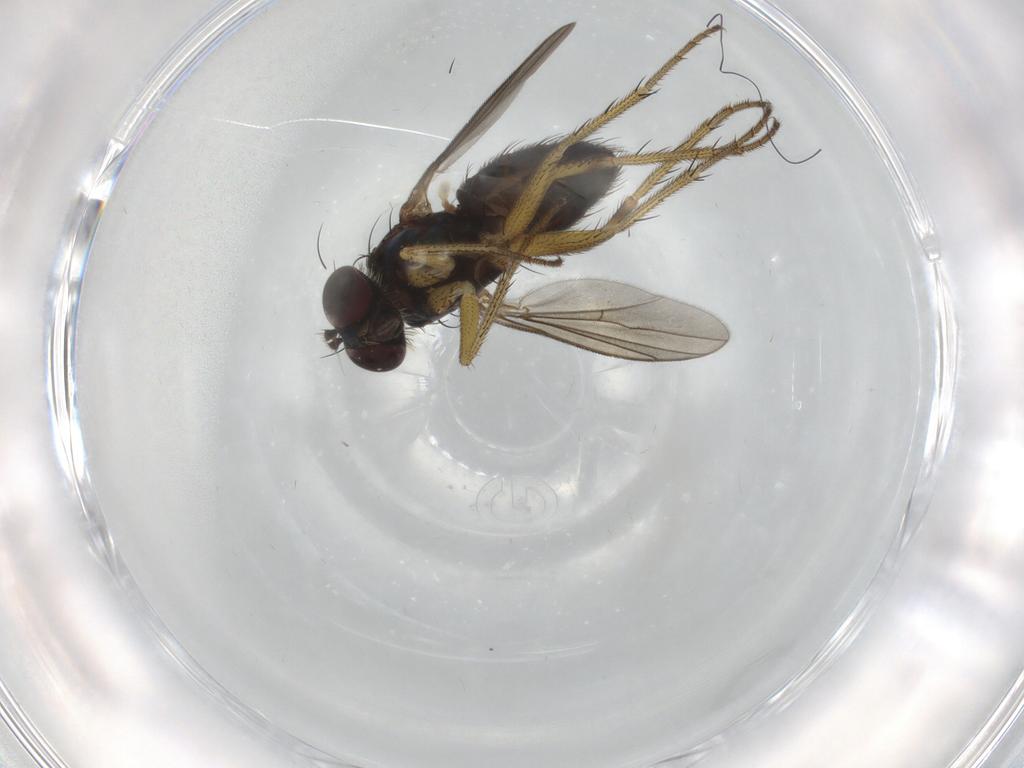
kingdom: Animalia
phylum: Arthropoda
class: Insecta
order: Diptera
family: Dolichopodidae
